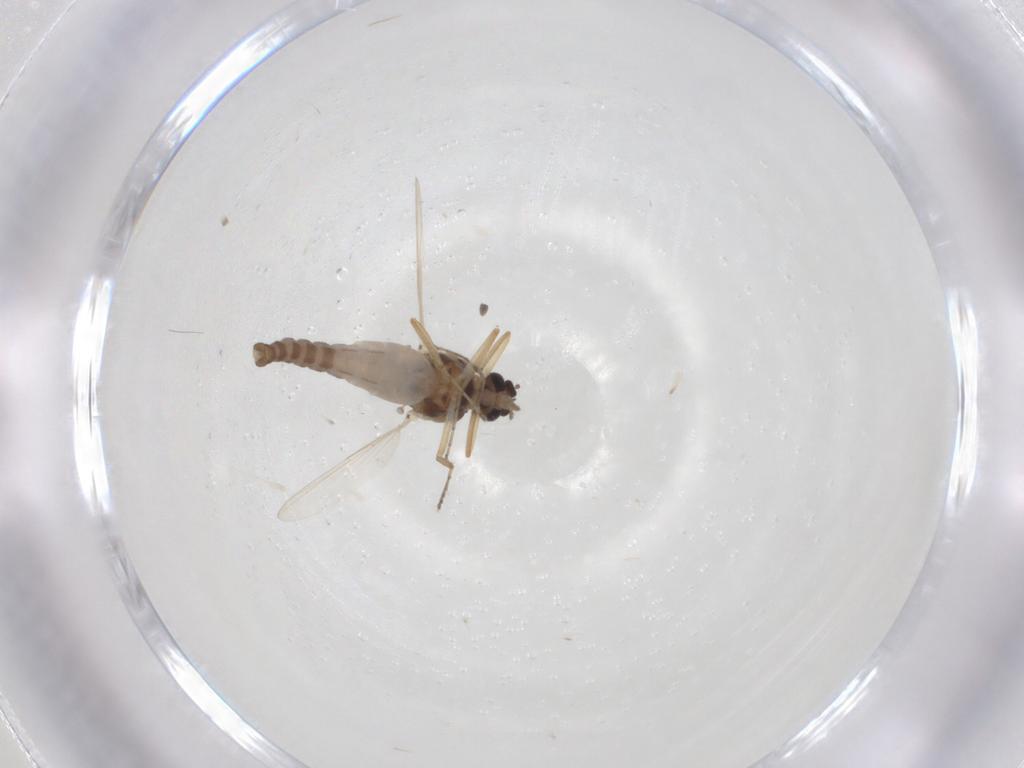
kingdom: Animalia
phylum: Arthropoda
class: Insecta
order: Diptera
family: Ceratopogonidae
